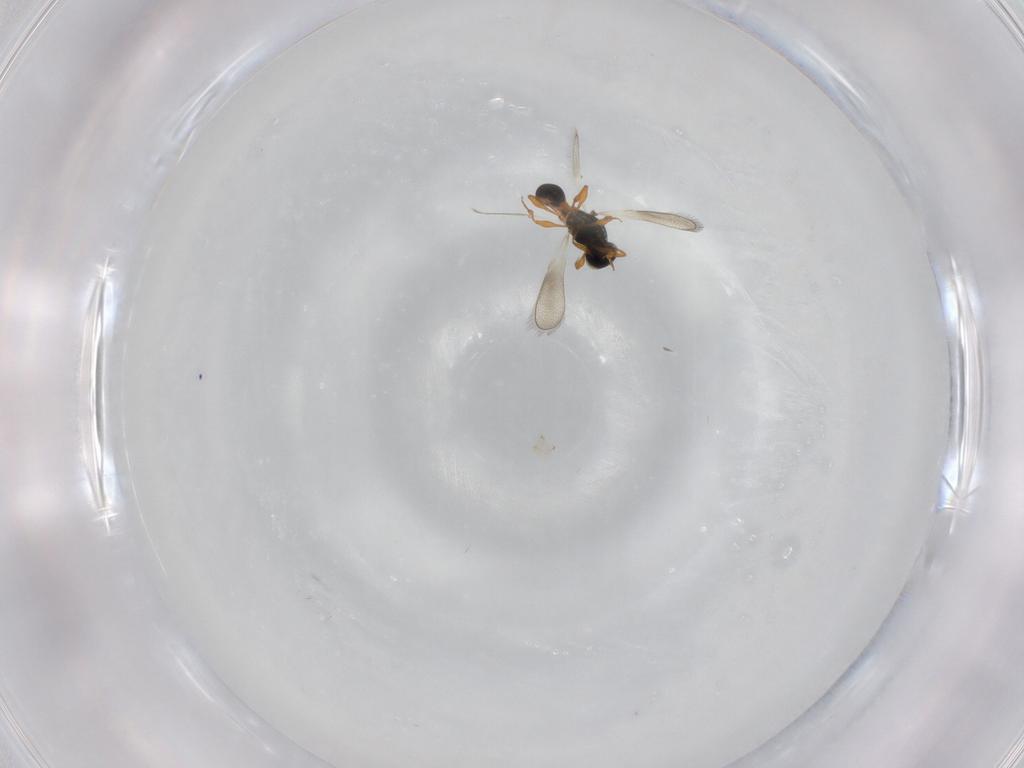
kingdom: Animalia
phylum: Arthropoda
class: Insecta
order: Hymenoptera
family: Platygastridae
